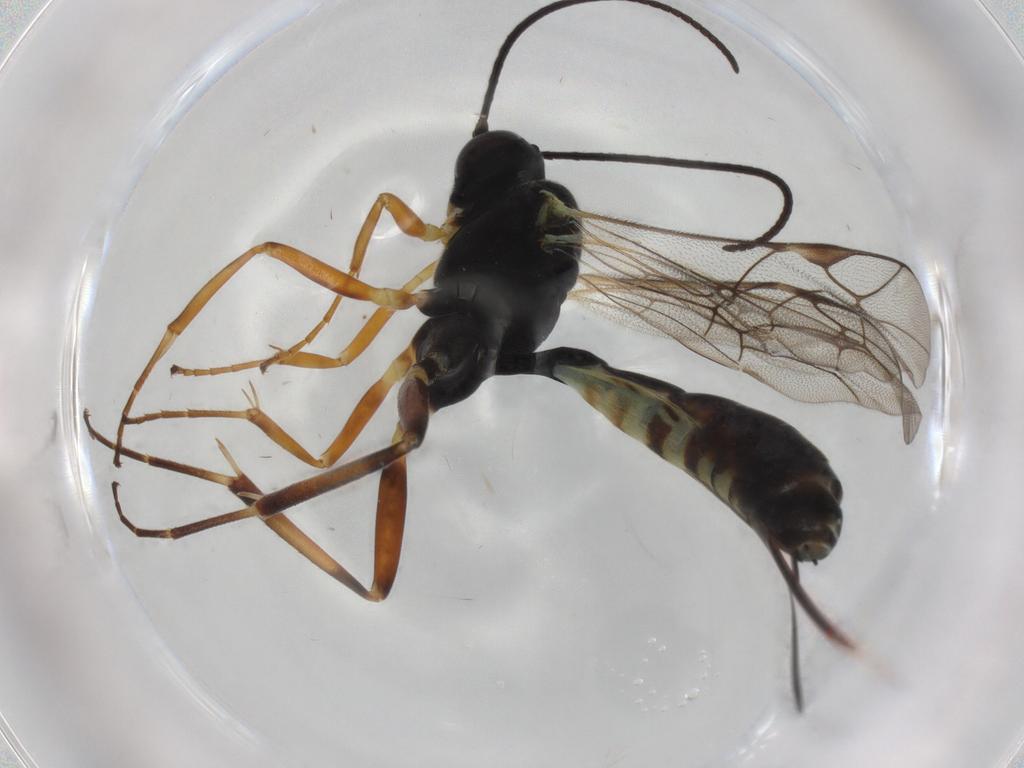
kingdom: Animalia
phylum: Arthropoda
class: Insecta
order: Hymenoptera
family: Ichneumonidae
